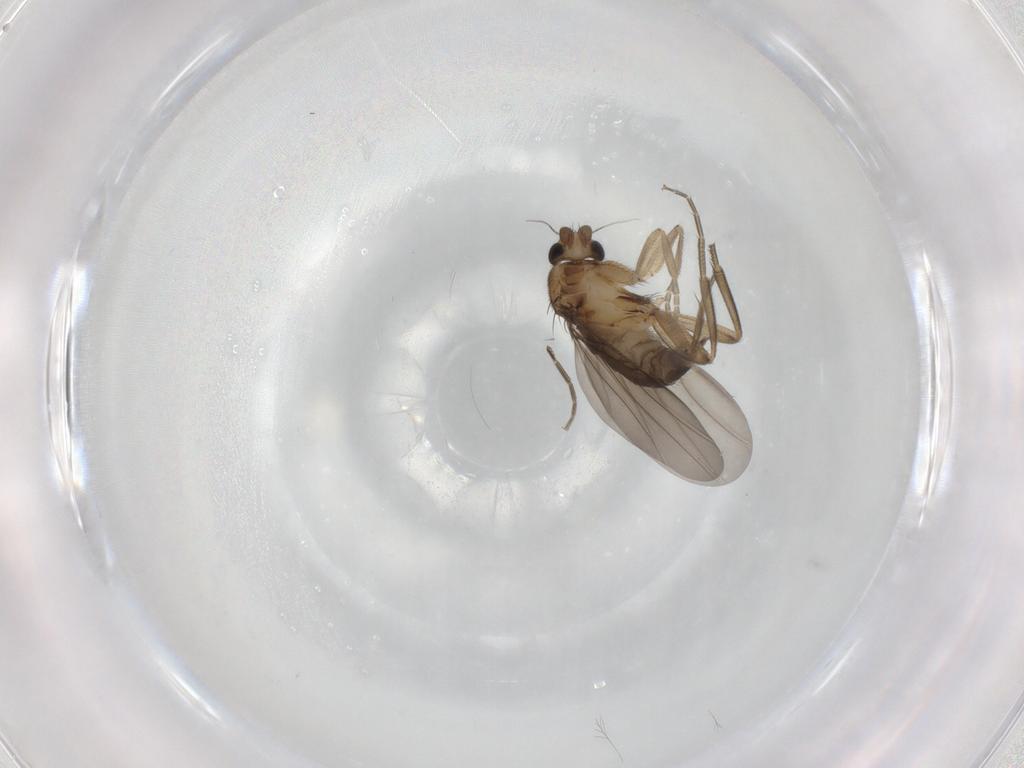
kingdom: Animalia
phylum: Arthropoda
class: Insecta
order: Diptera
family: Phoridae
